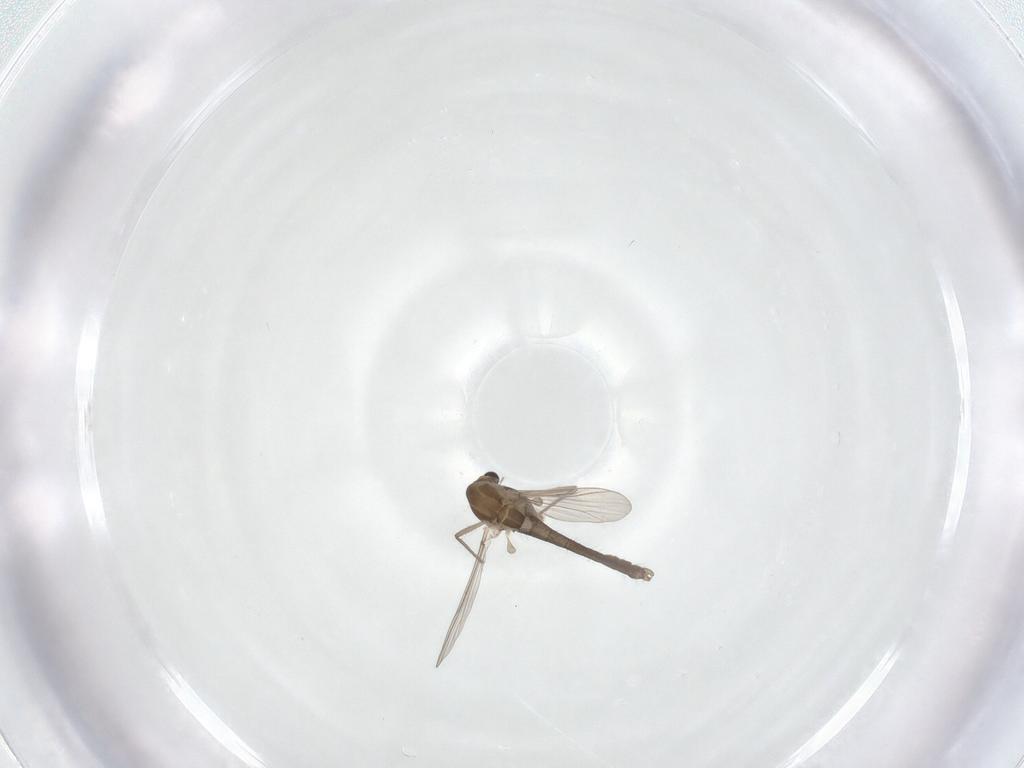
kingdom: Animalia
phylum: Arthropoda
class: Insecta
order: Diptera
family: Chironomidae
